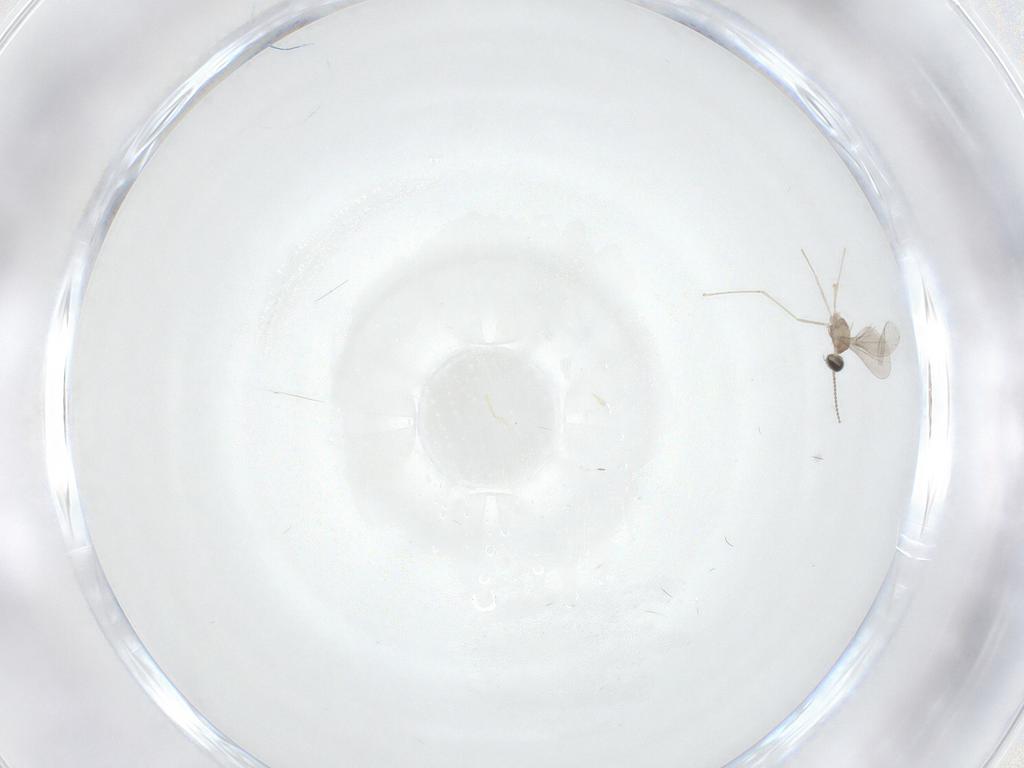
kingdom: Animalia
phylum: Arthropoda
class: Insecta
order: Diptera
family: Cecidomyiidae
